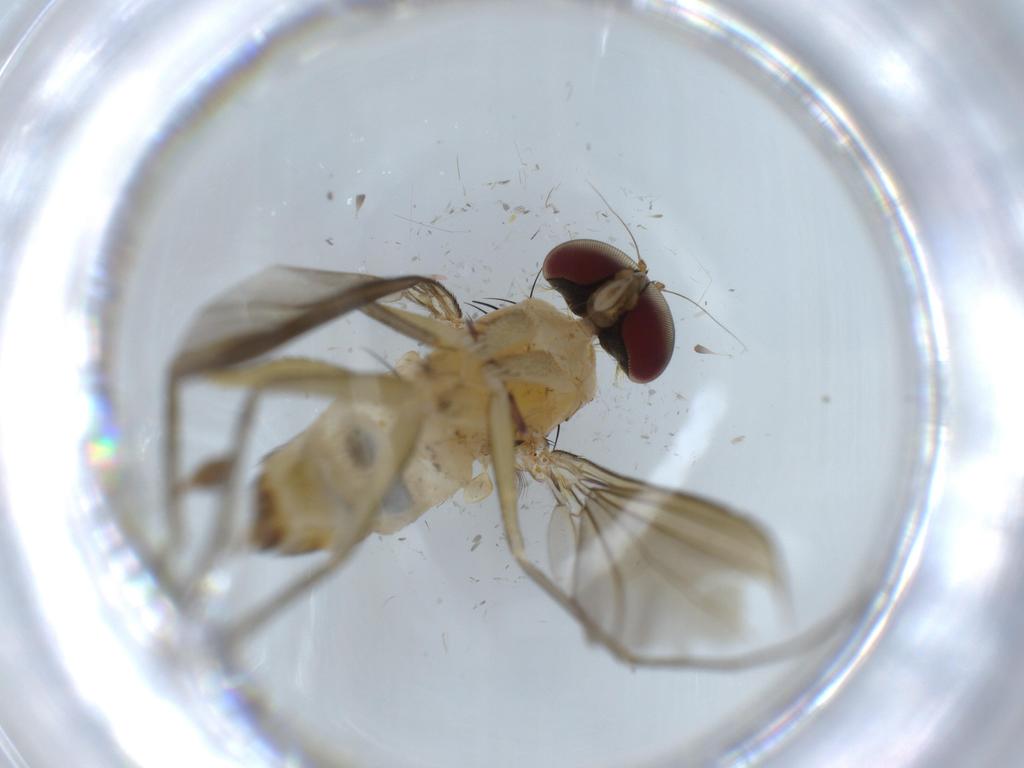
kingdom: Animalia
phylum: Arthropoda
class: Insecta
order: Diptera
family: Dolichopodidae
